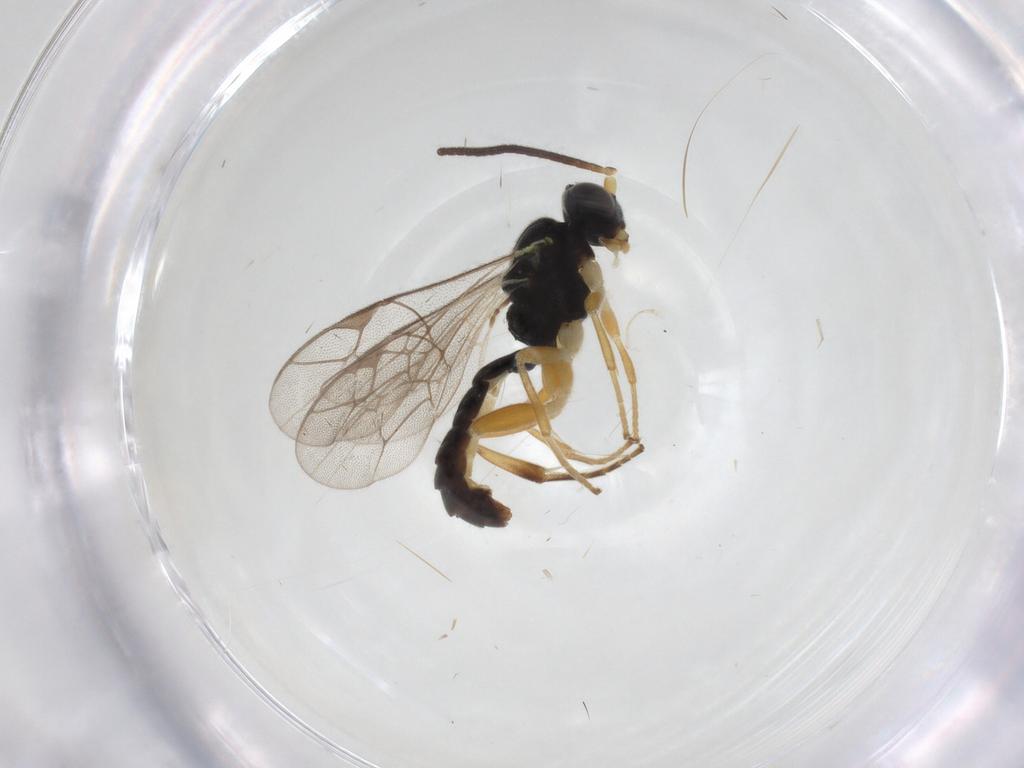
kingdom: Animalia
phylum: Arthropoda
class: Insecta
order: Hymenoptera
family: Ichneumonidae
